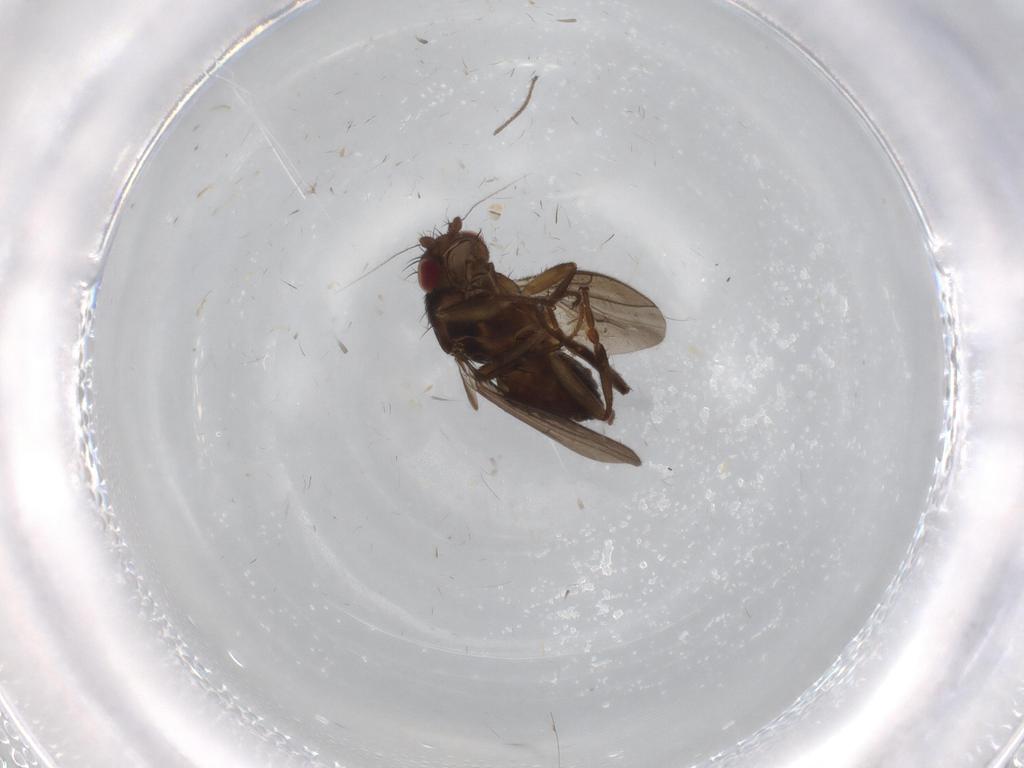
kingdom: Animalia
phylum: Arthropoda
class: Insecta
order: Diptera
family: Sphaeroceridae
